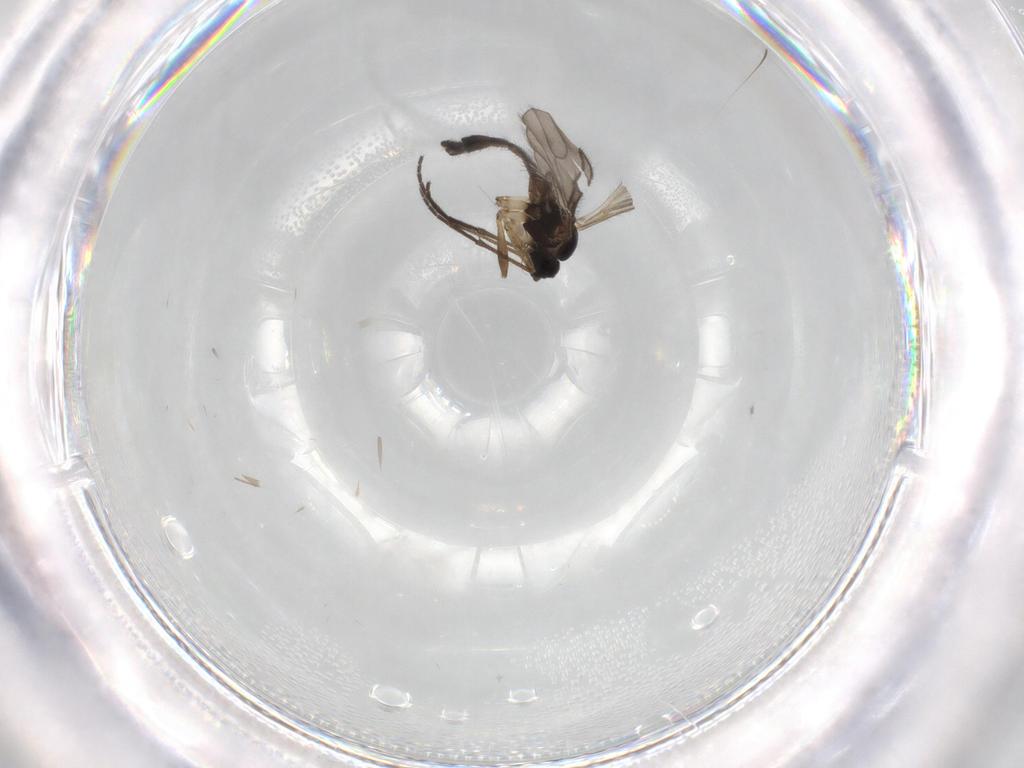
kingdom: Animalia
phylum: Arthropoda
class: Insecta
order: Diptera
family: Sciaridae
